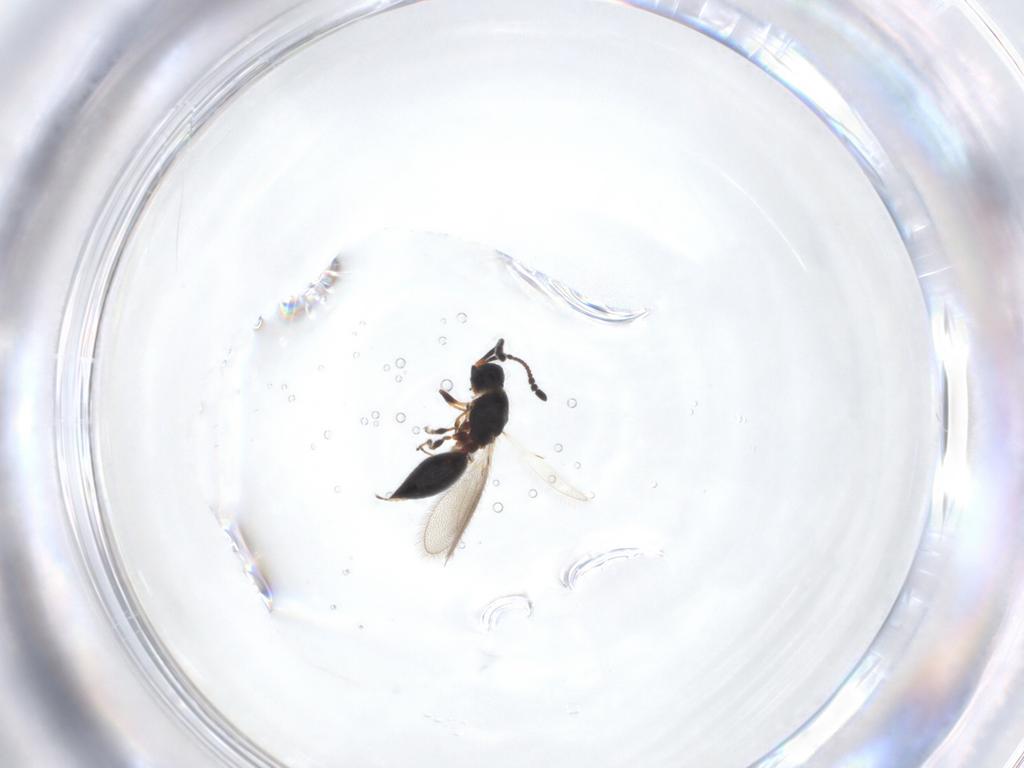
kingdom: Animalia
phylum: Arthropoda
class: Insecta
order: Hymenoptera
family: Diapriidae
